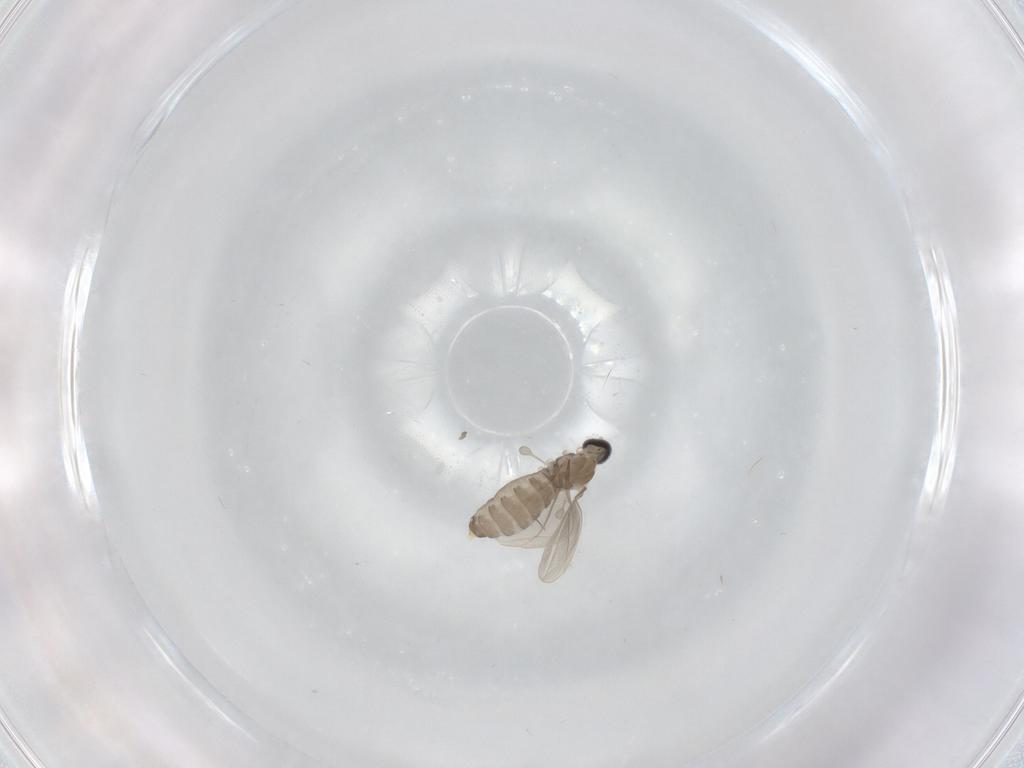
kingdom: Animalia
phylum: Arthropoda
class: Insecta
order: Diptera
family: Cecidomyiidae
